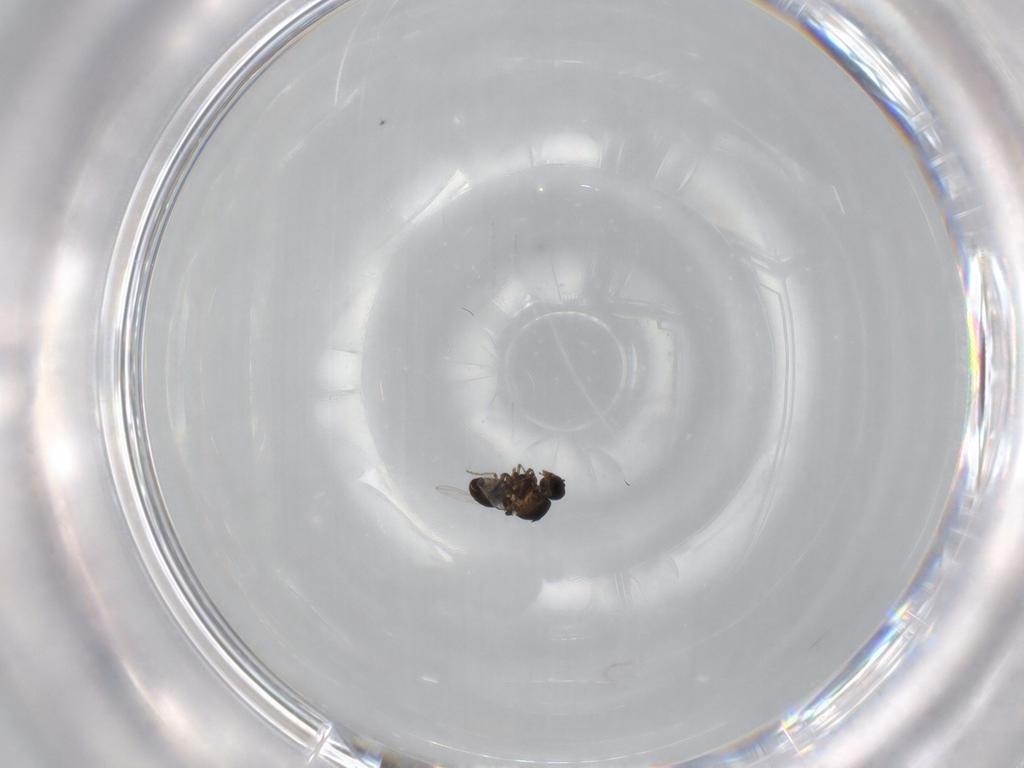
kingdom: Animalia
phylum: Arthropoda
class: Insecta
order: Diptera
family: Ceratopogonidae
